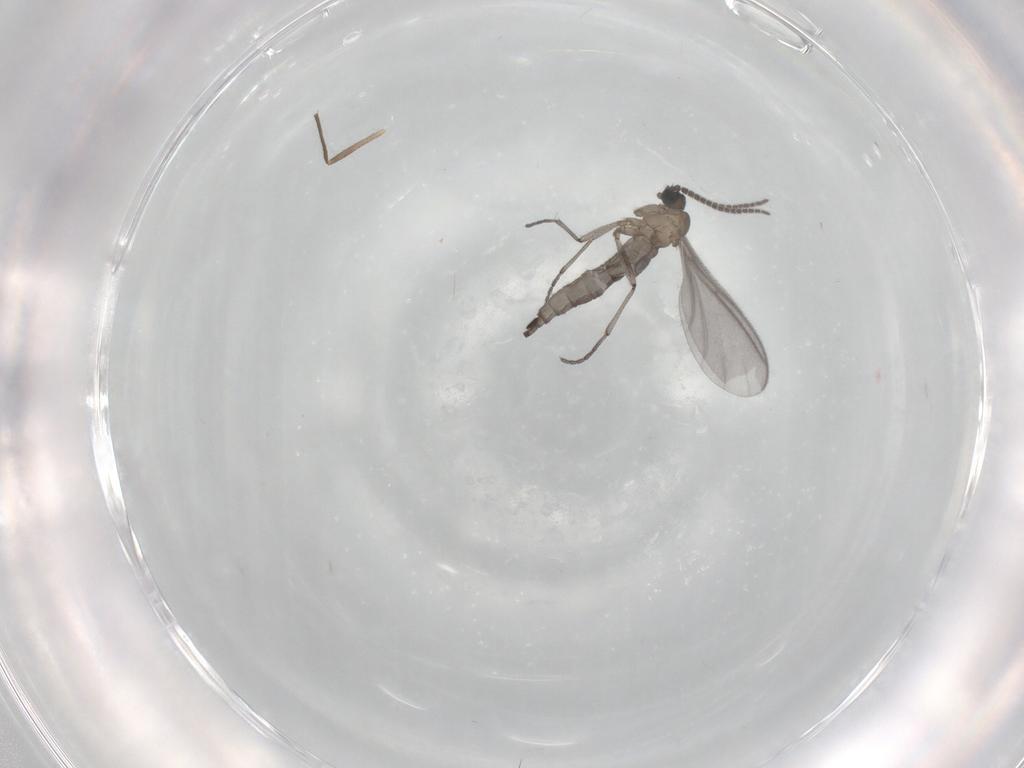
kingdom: Animalia
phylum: Arthropoda
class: Insecta
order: Diptera
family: Sciaridae
